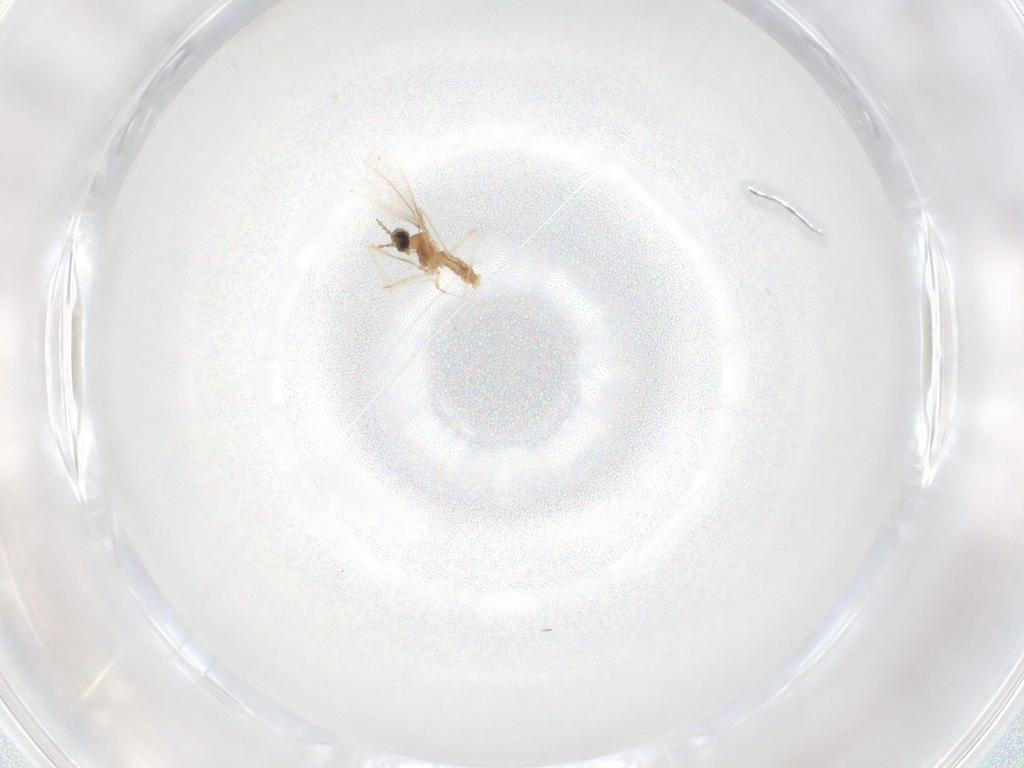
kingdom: Animalia
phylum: Arthropoda
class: Insecta
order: Diptera
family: Cecidomyiidae
